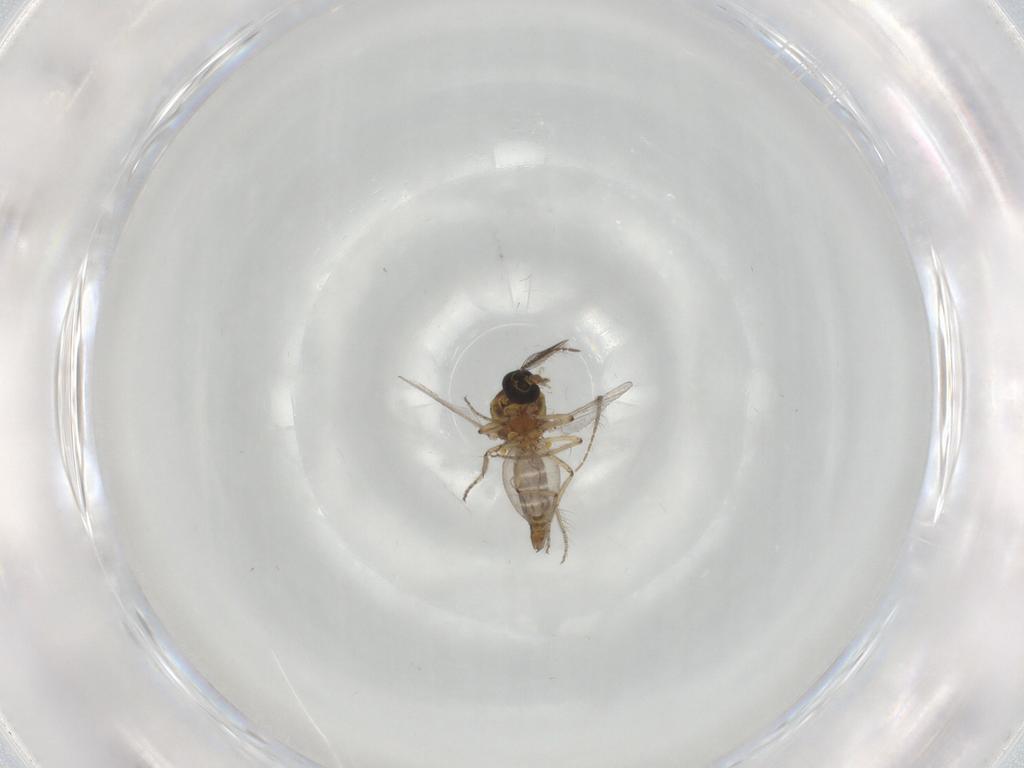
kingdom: Animalia
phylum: Arthropoda
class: Insecta
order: Diptera
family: Ceratopogonidae
